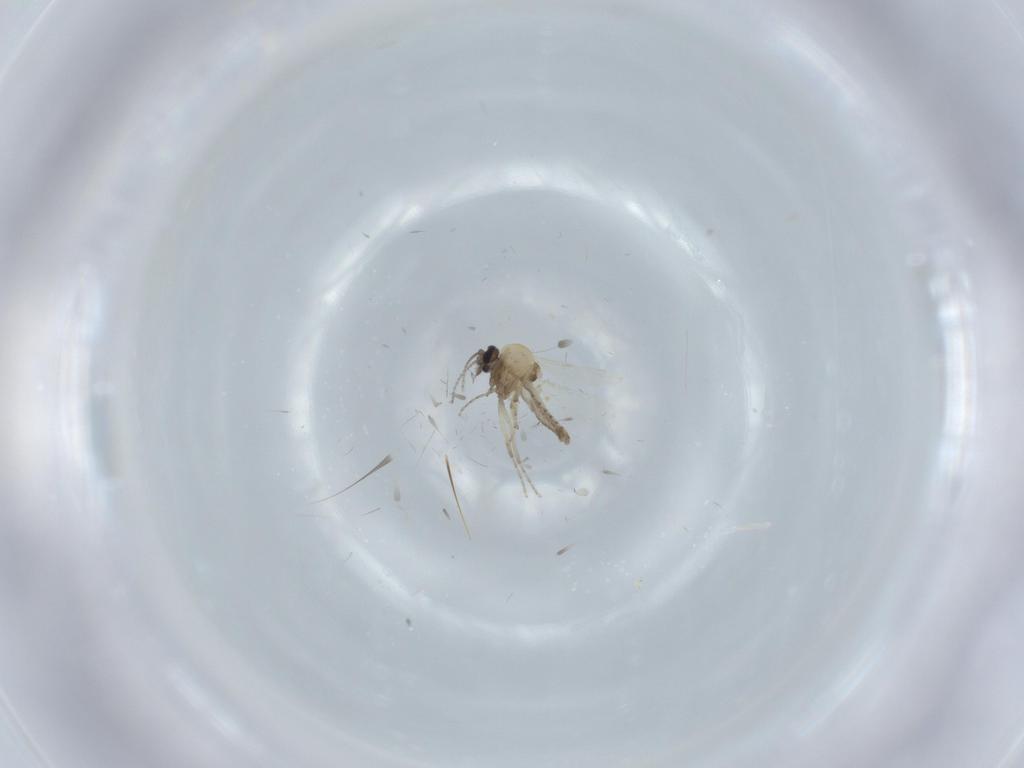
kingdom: Animalia
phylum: Arthropoda
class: Insecta
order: Diptera
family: Ceratopogonidae
